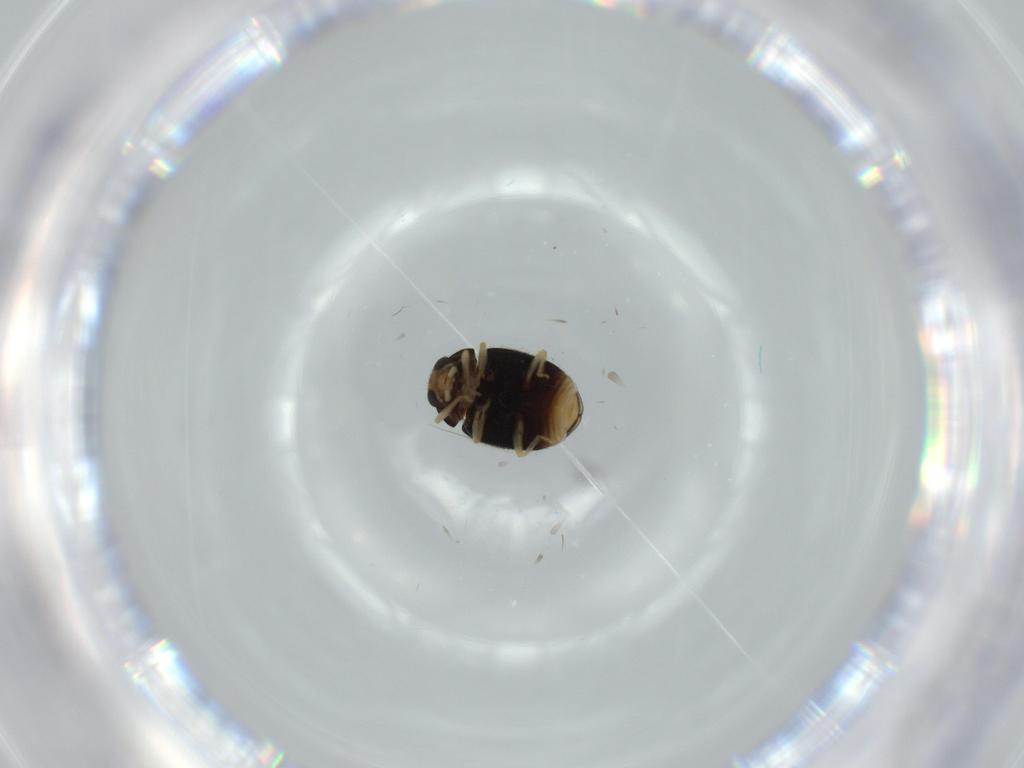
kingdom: Animalia
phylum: Arthropoda
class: Insecta
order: Coleoptera
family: Coccinellidae
